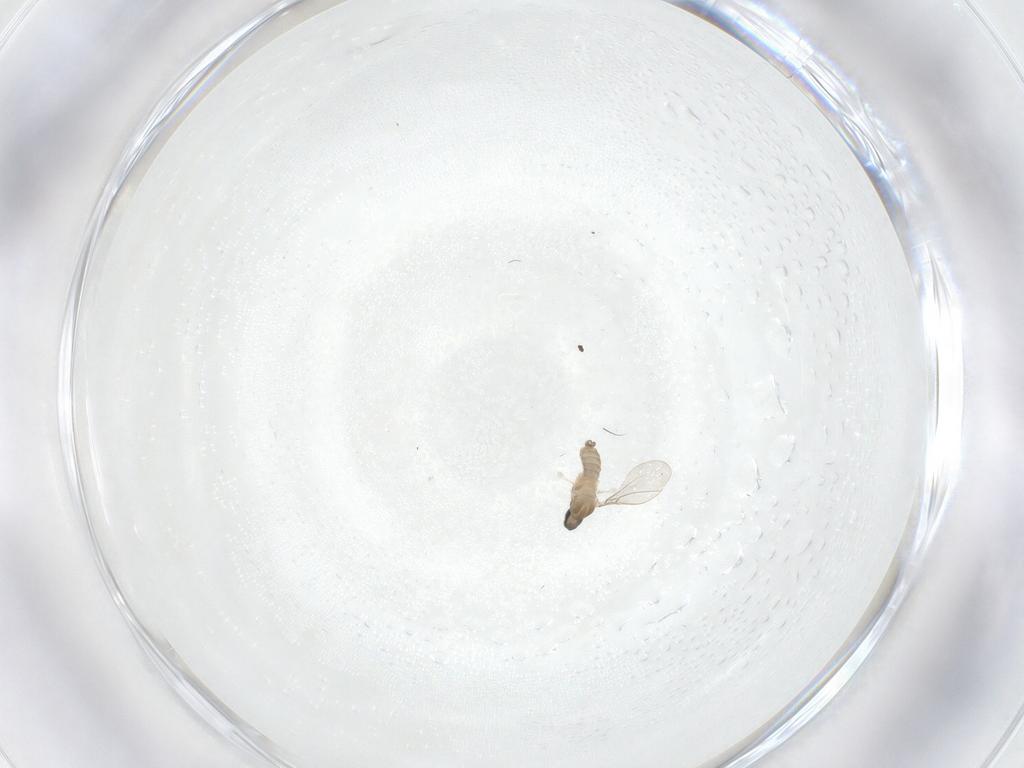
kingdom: Animalia
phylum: Arthropoda
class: Insecta
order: Diptera
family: Cecidomyiidae
